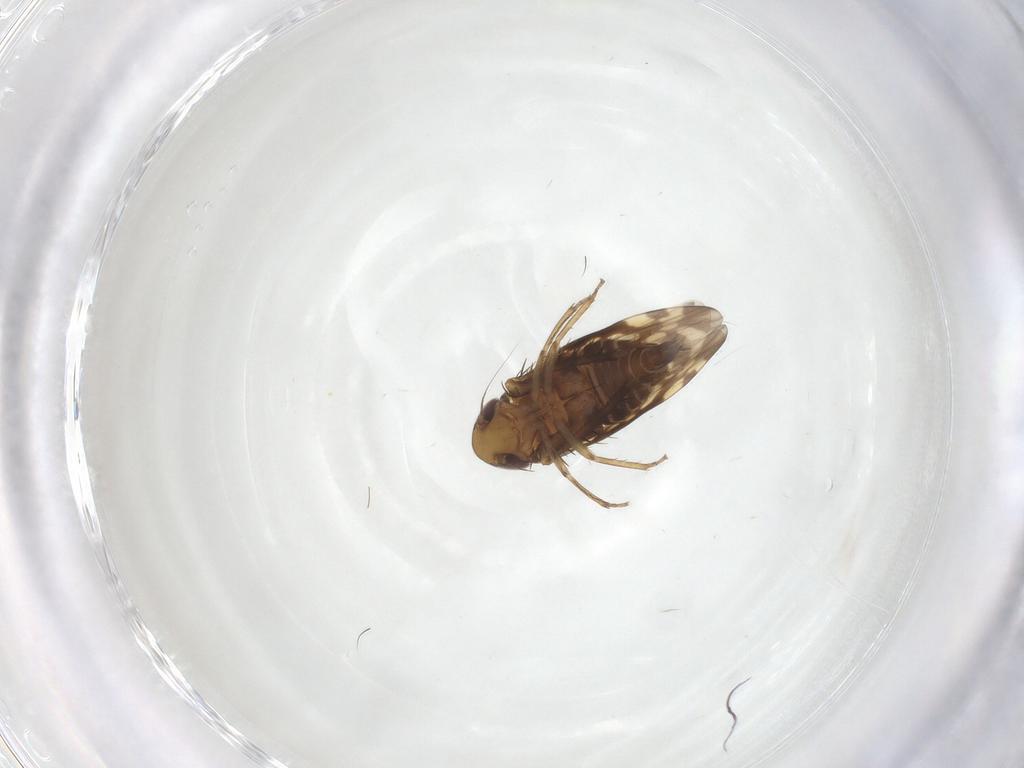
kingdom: Animalia
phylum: Arthropoda
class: Insecta
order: Hemiptera
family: Cicadellidae
